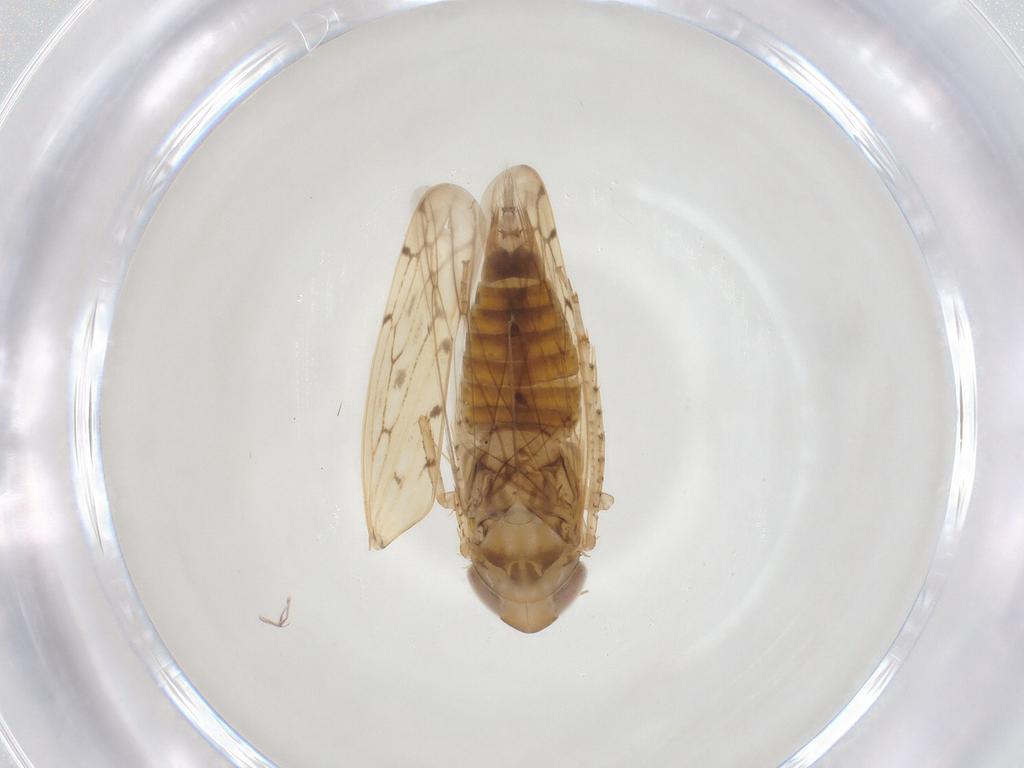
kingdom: Animalia
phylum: Arthropoda
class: Insecta
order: Hemiptera
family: Cicadellidae
